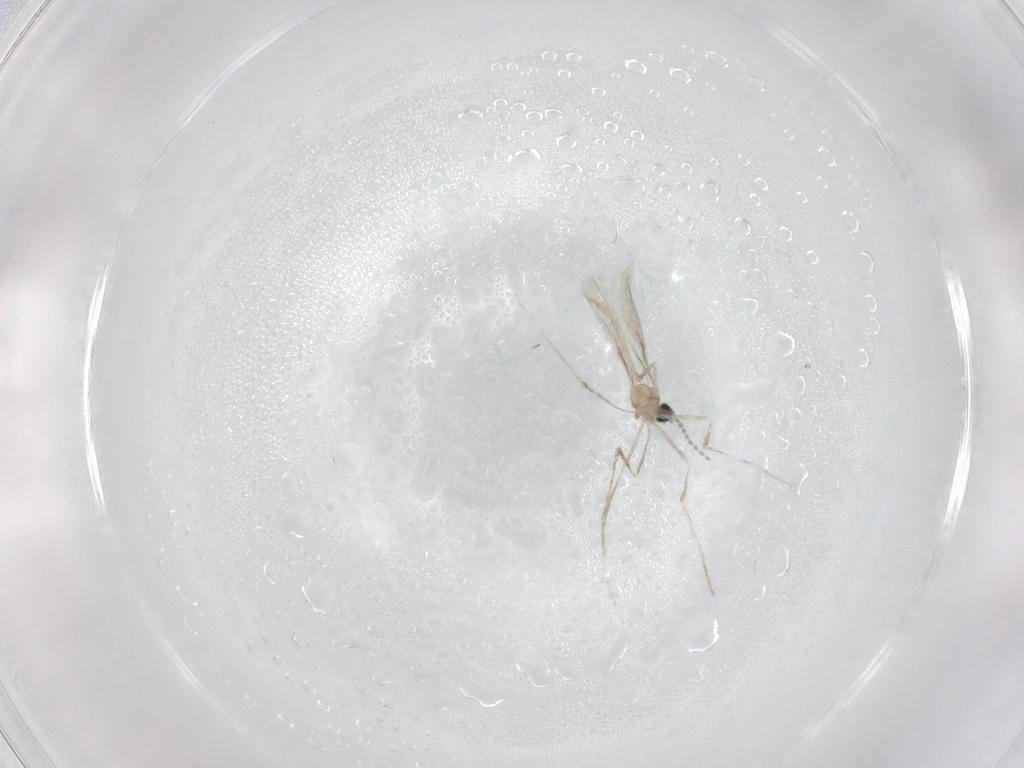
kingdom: Animalia
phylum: Arthropoda
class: Insecta
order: Diptera
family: Cecidomyiidae
